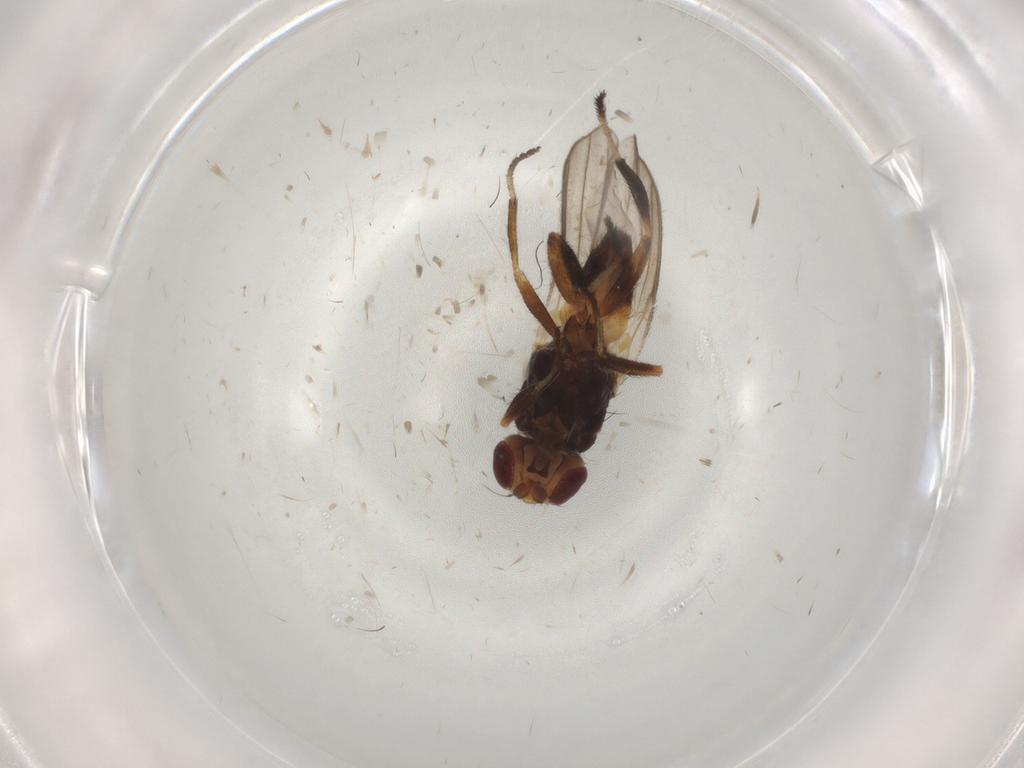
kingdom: Animalia
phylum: Arthropoda
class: Insecta
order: Diptera
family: Chloropidae
